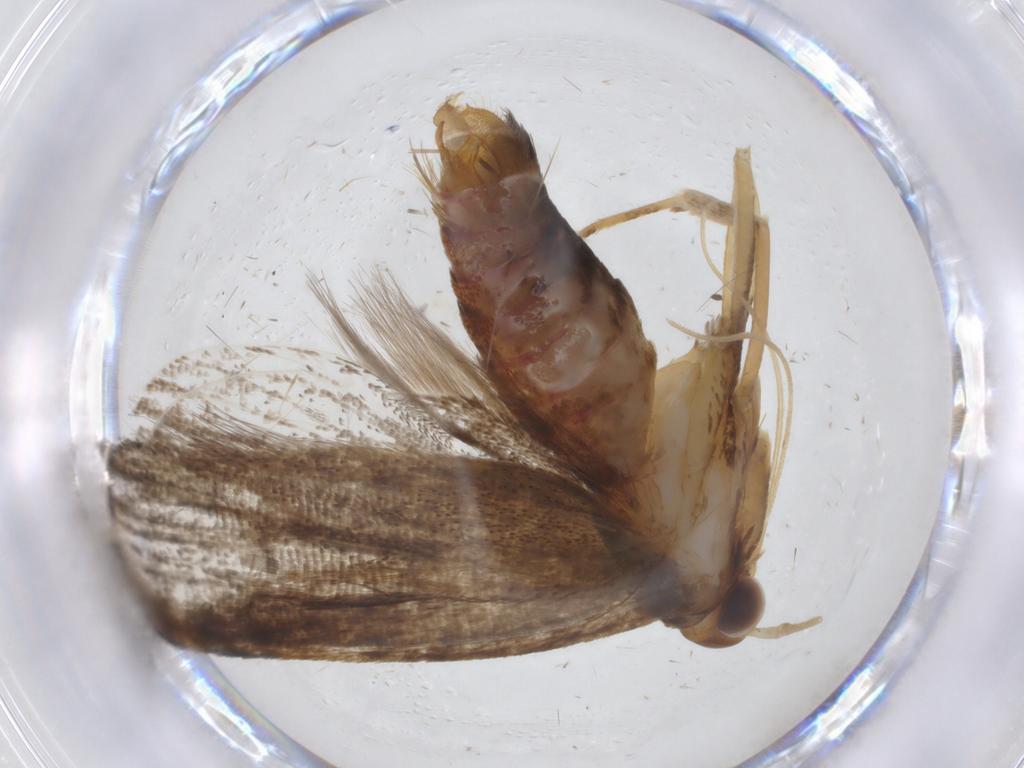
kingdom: Animalia
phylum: Arthropoda
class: Insecta
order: Lepidoptera
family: Lecithoceridae
